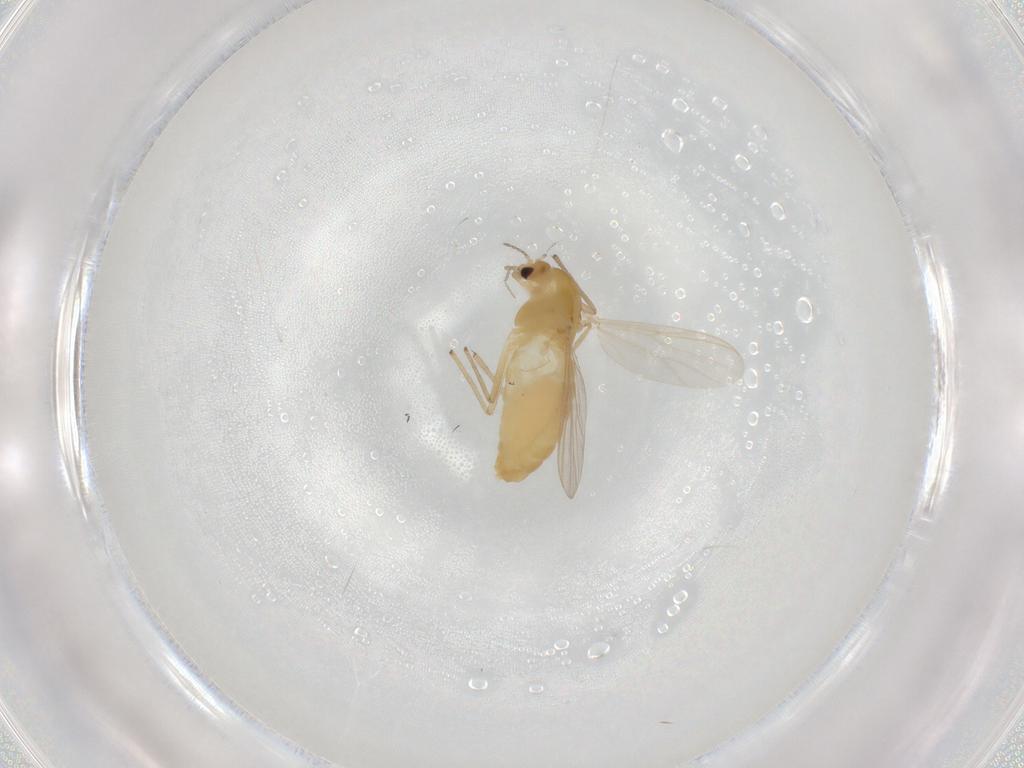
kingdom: Animalia
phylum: Arthropoda
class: Insecta
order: Diptera
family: Chironomidae
